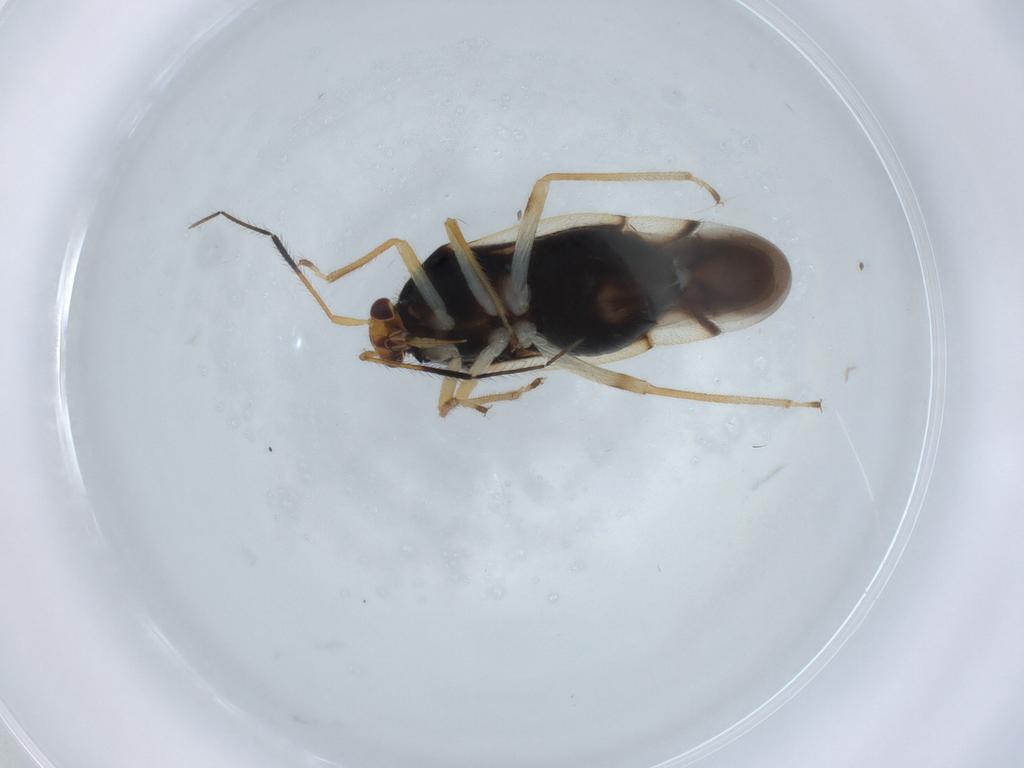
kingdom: Animalia
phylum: Arthropoda
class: Insecta
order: Hemiptera
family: Miridae
